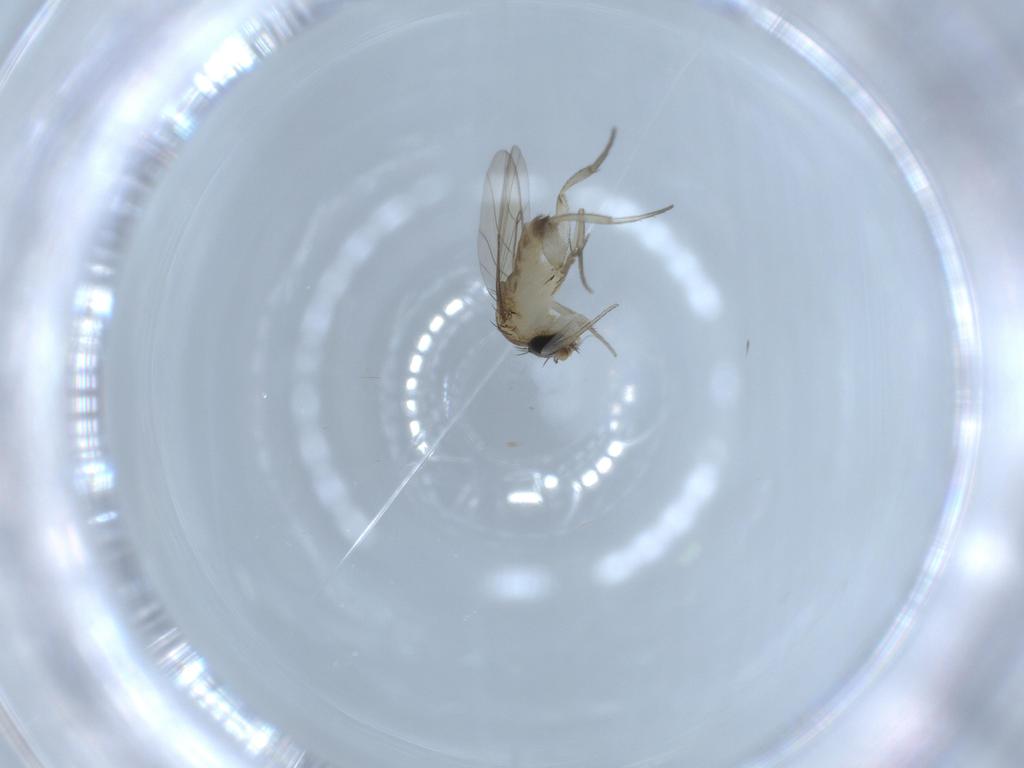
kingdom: Animalia
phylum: Arthropoda
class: Insecta
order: Diptera
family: Phoridae
